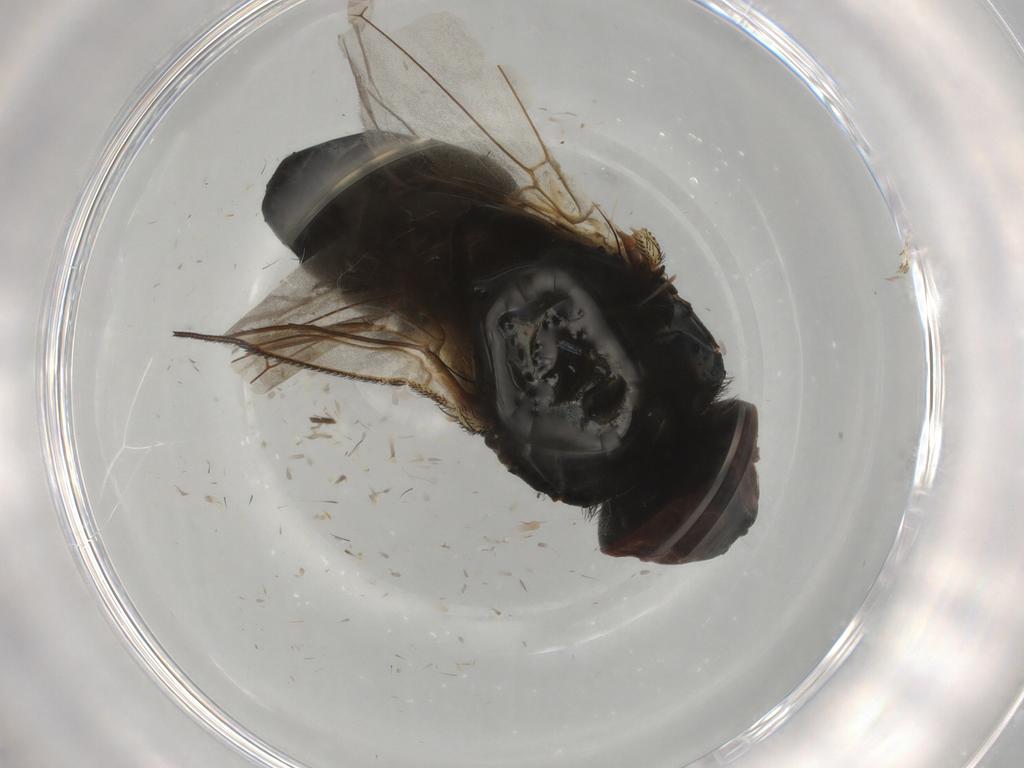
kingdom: Animalia
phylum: Arthropoda
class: Insecta
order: Diptera
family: Muscidae
